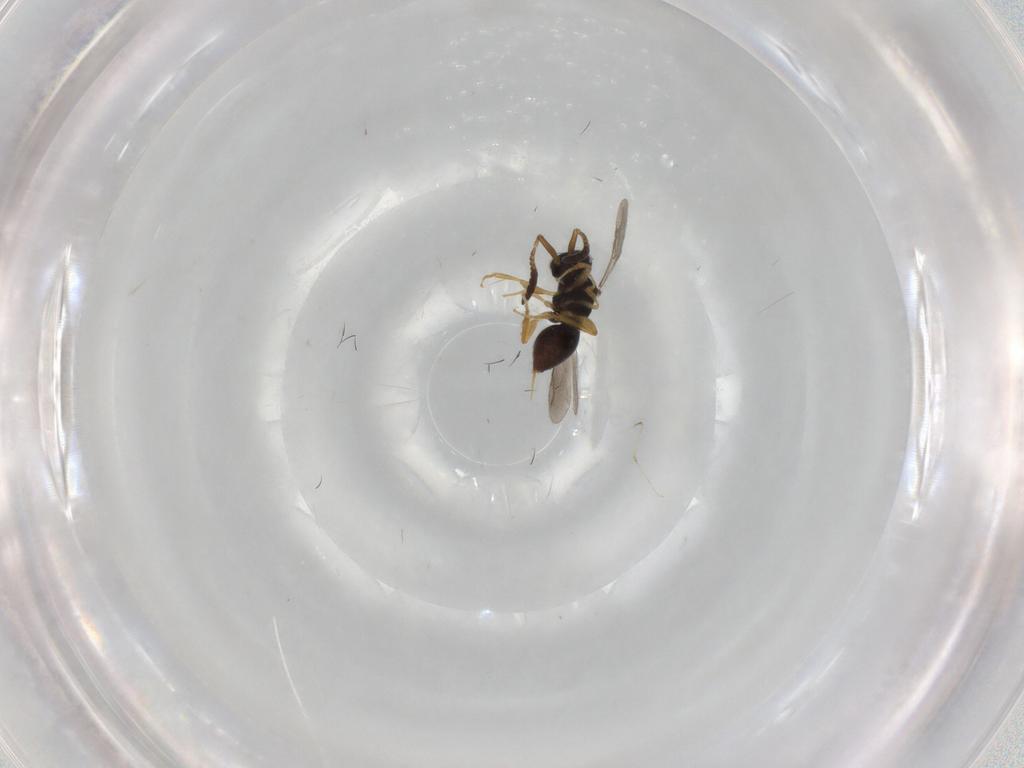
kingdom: Animalia
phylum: Arthropoda
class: Insecta
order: Hymenoptera
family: Ceraphronidae
